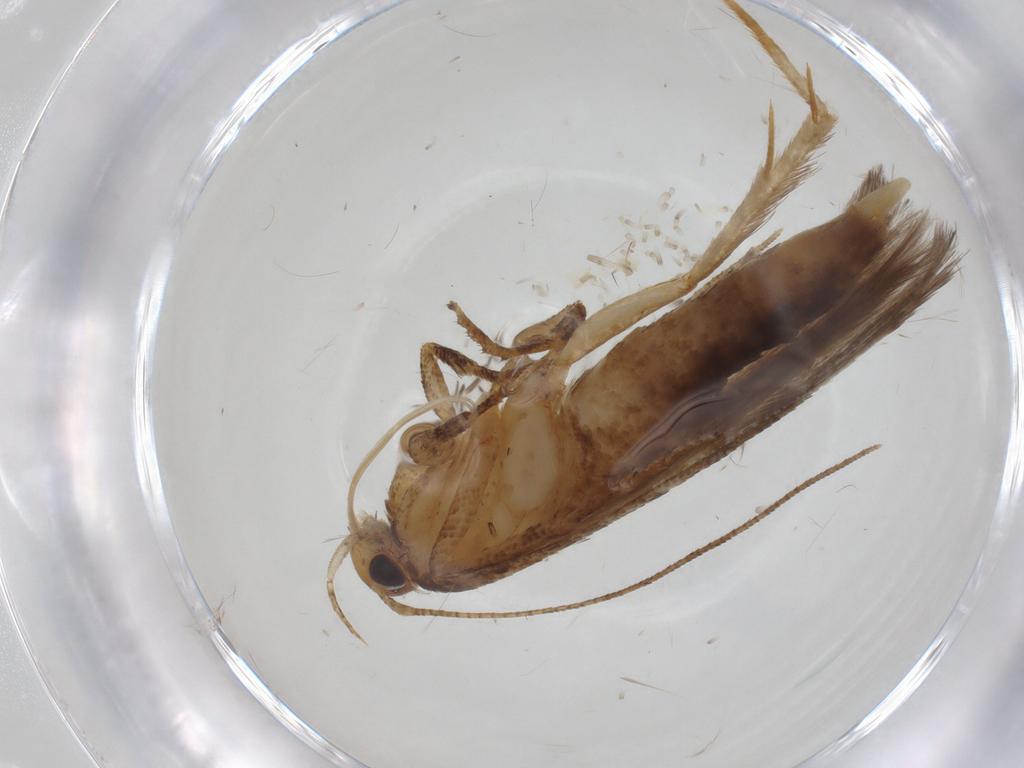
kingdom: Animalia
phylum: Arthropoda
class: Insecta
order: Lepidoptera
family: Gelechiidae
